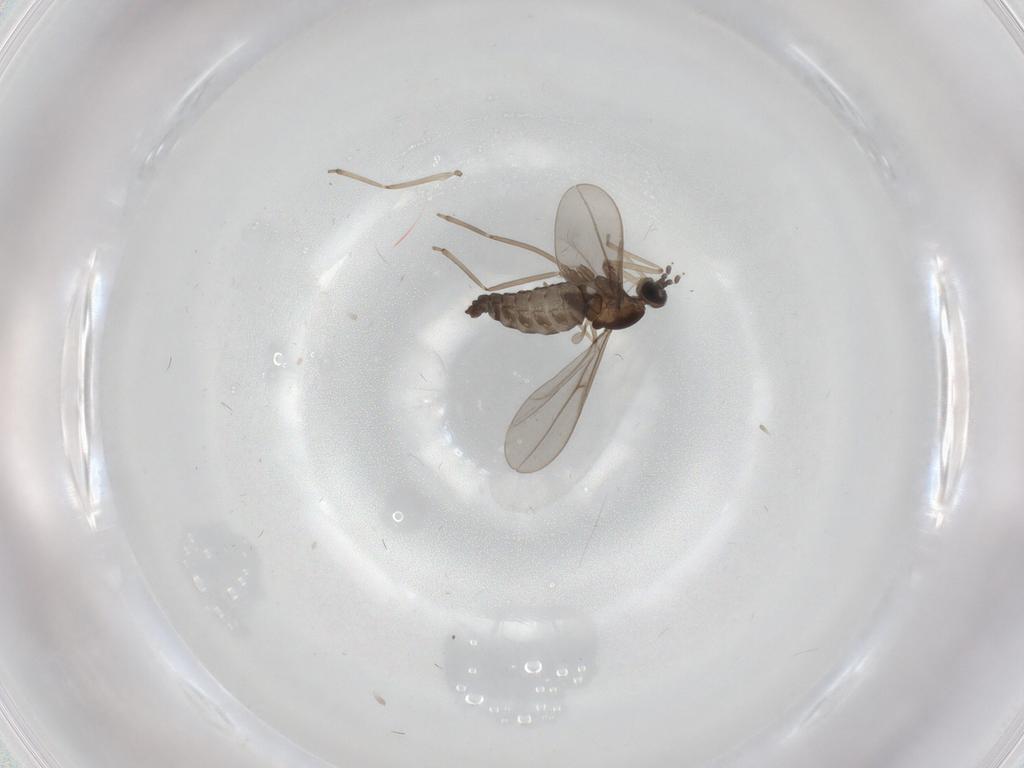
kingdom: Animalia
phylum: Arthropoda
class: Insecta
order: Diptera
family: Cecidomyiidae
